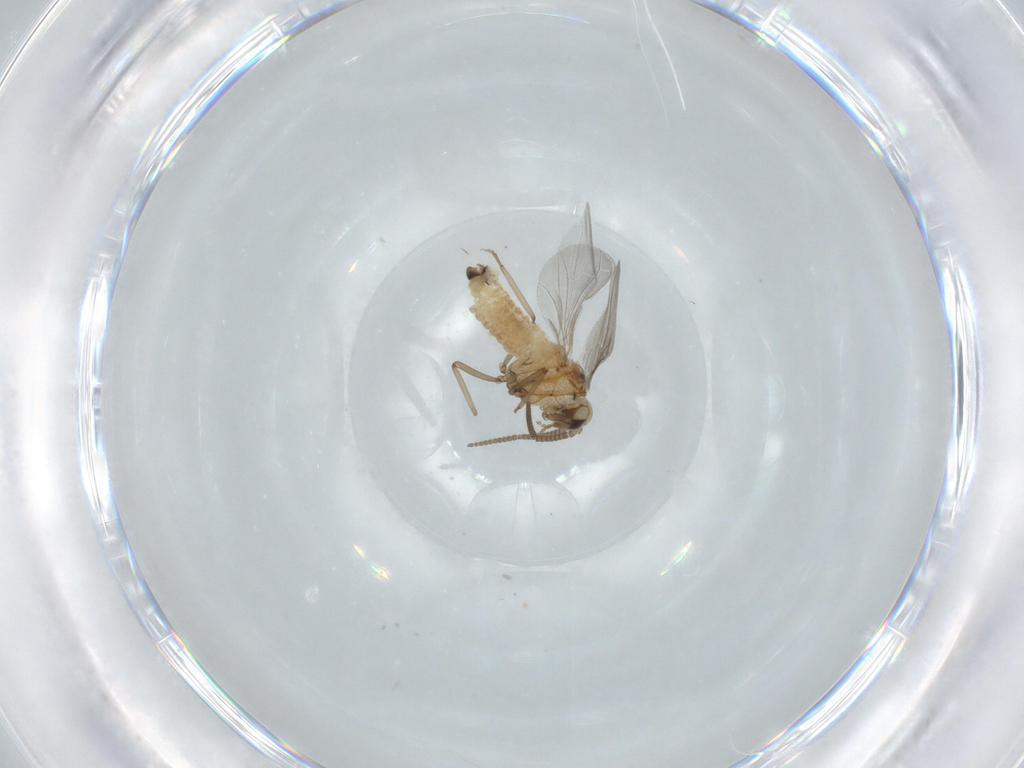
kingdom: Animalia
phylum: Arthropoda
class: Insecta
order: Neuroptera
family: Coniopterygidae
